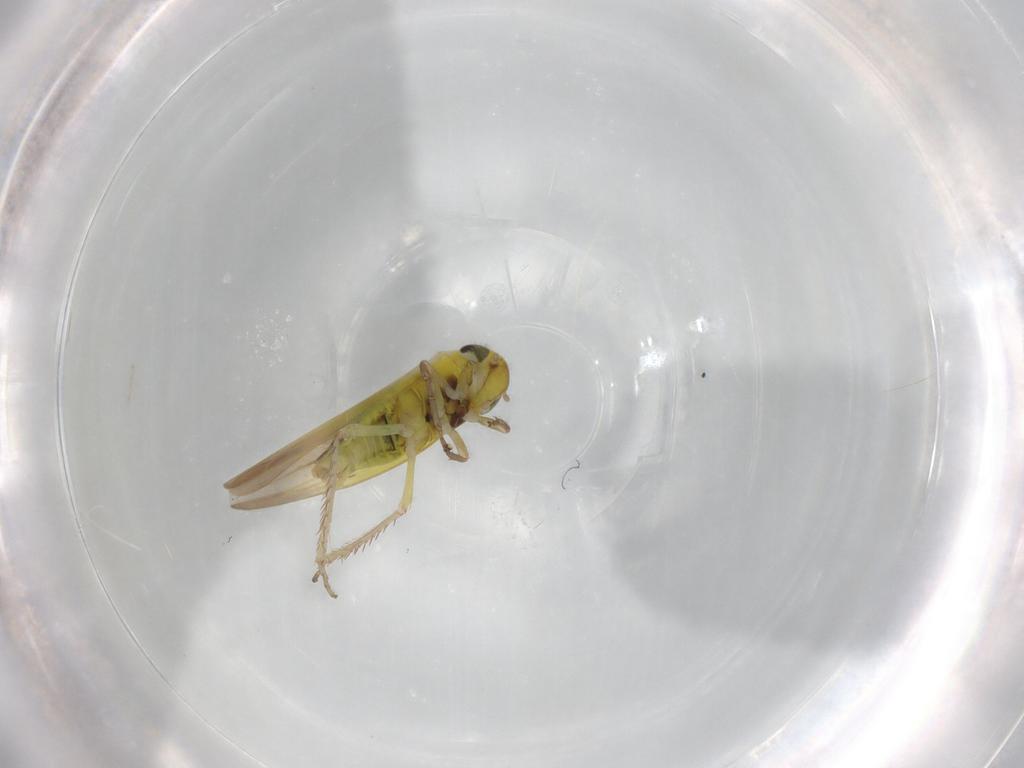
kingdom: Animalia
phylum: Arthropoda
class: Insecta
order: Hemiptera
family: Cicadellidae
